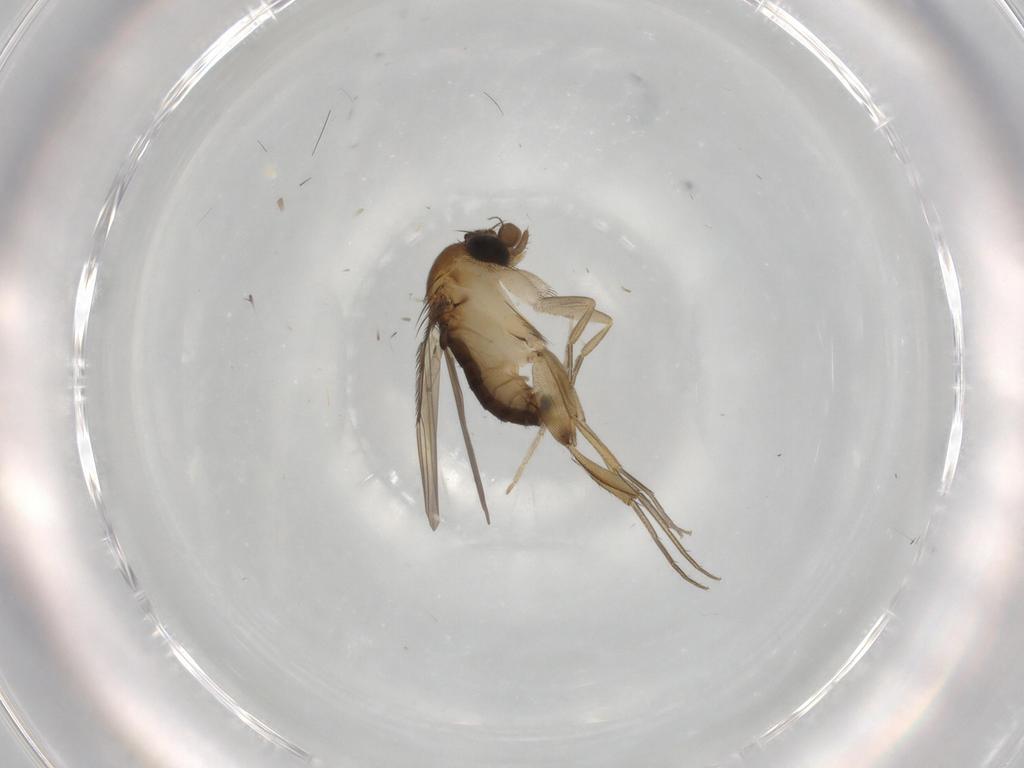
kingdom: Animalia
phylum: Arthropoda
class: Insecta
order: Diptera
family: Phoridae
